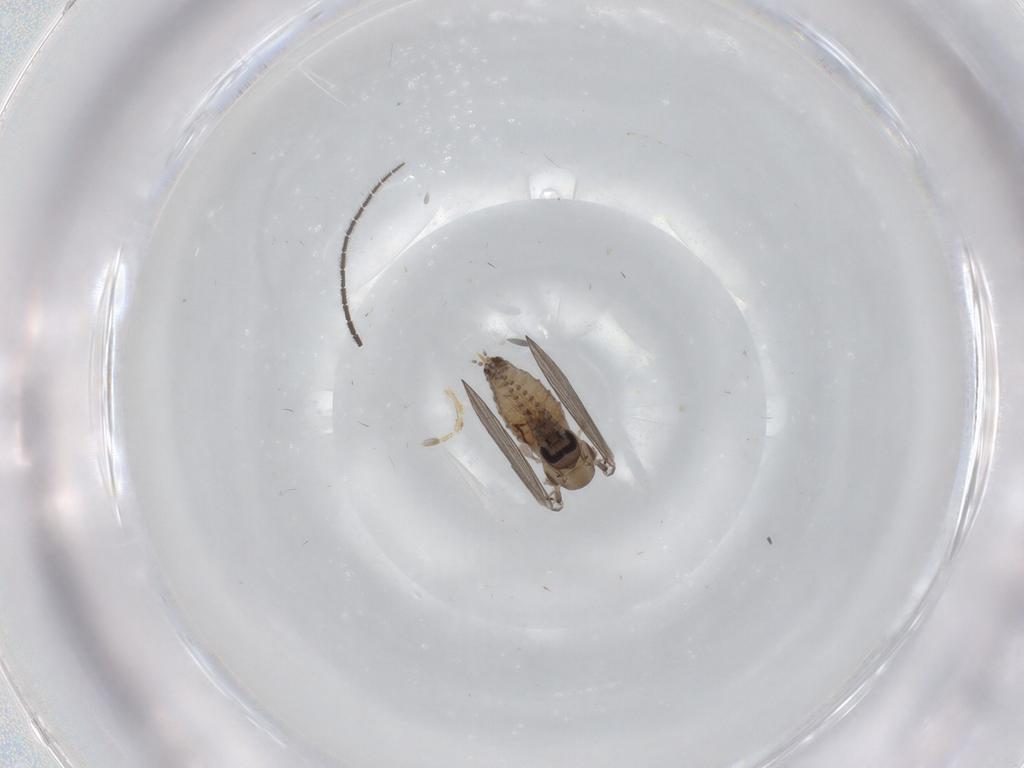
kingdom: Animalia
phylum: Arthropoda
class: Insecta
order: Diptera
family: Psychodidae
